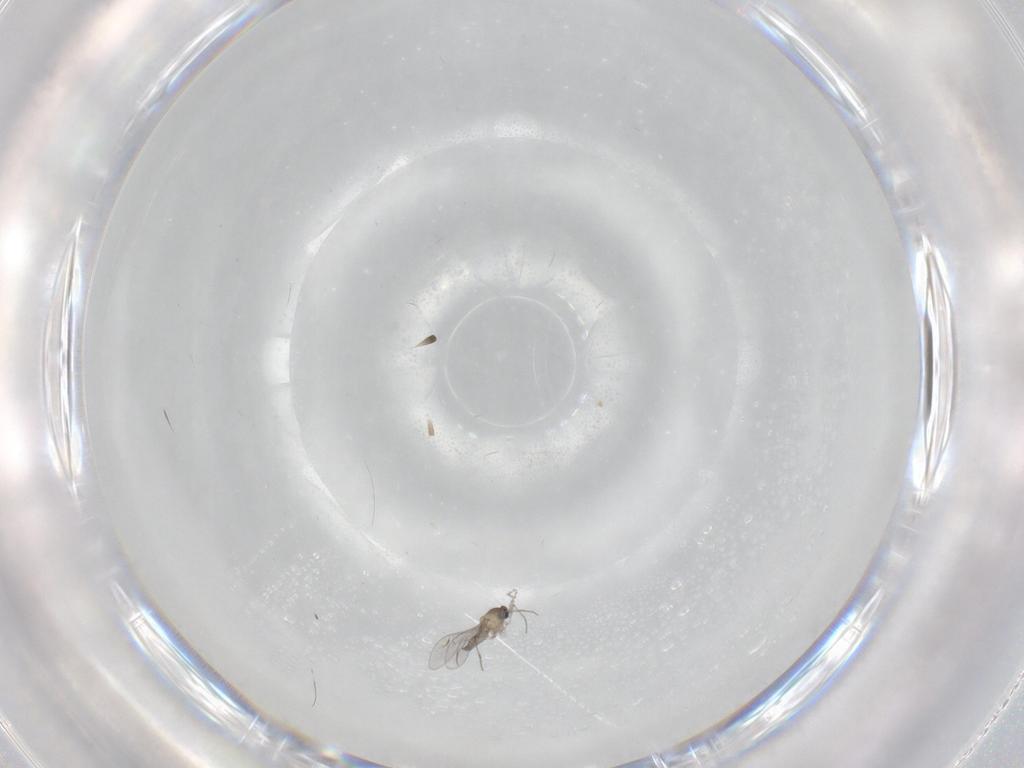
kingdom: Animalia
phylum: Arthropoda
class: Insecta
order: Diptera
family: Cecidomyiidae
